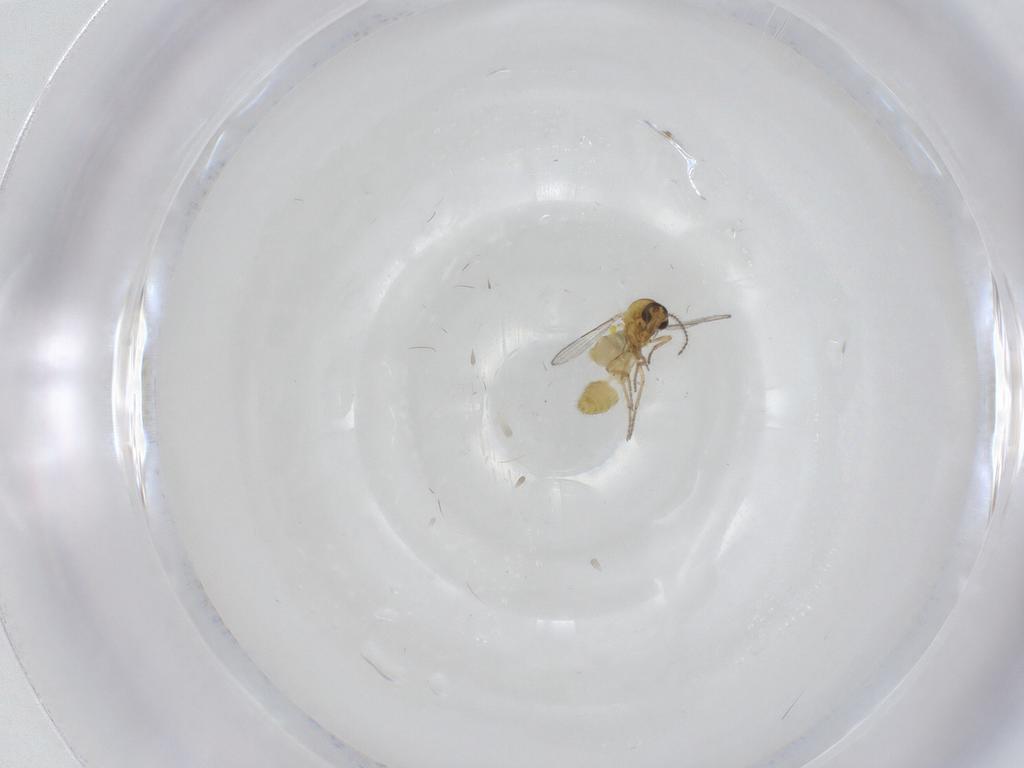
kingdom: Animalia
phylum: Arthropoda
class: Insecta
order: Diptera
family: Ceratopogonidae
